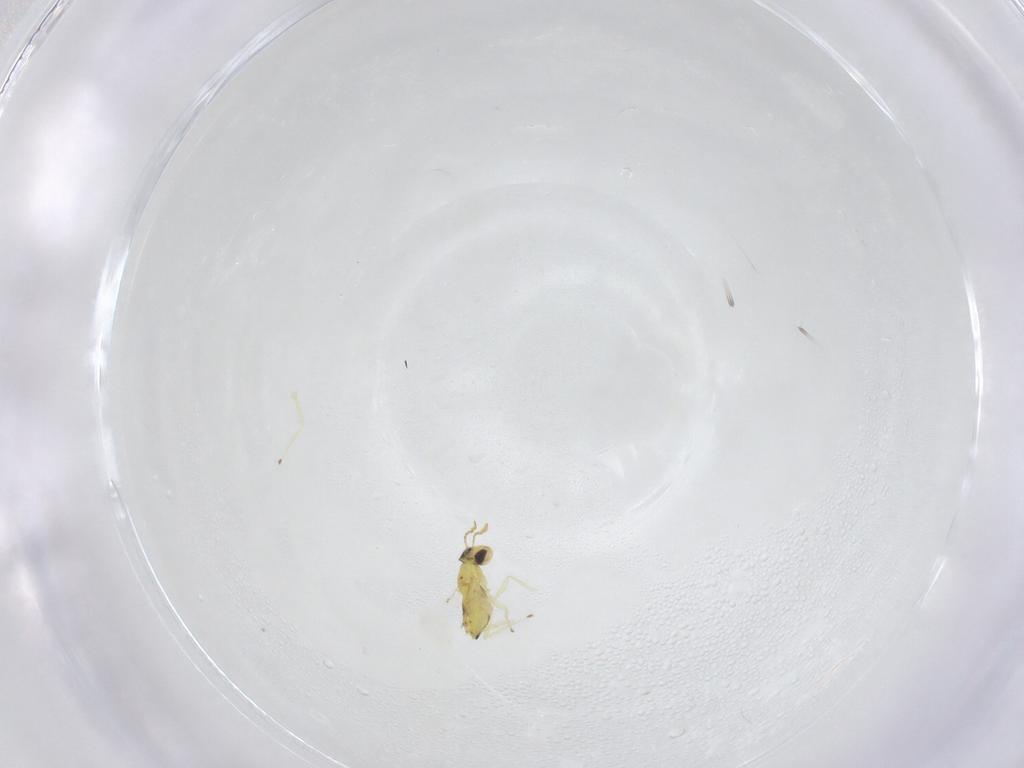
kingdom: Animalia
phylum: Arthropoda
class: Insecta
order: Hymenoptera
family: Mymaridae
